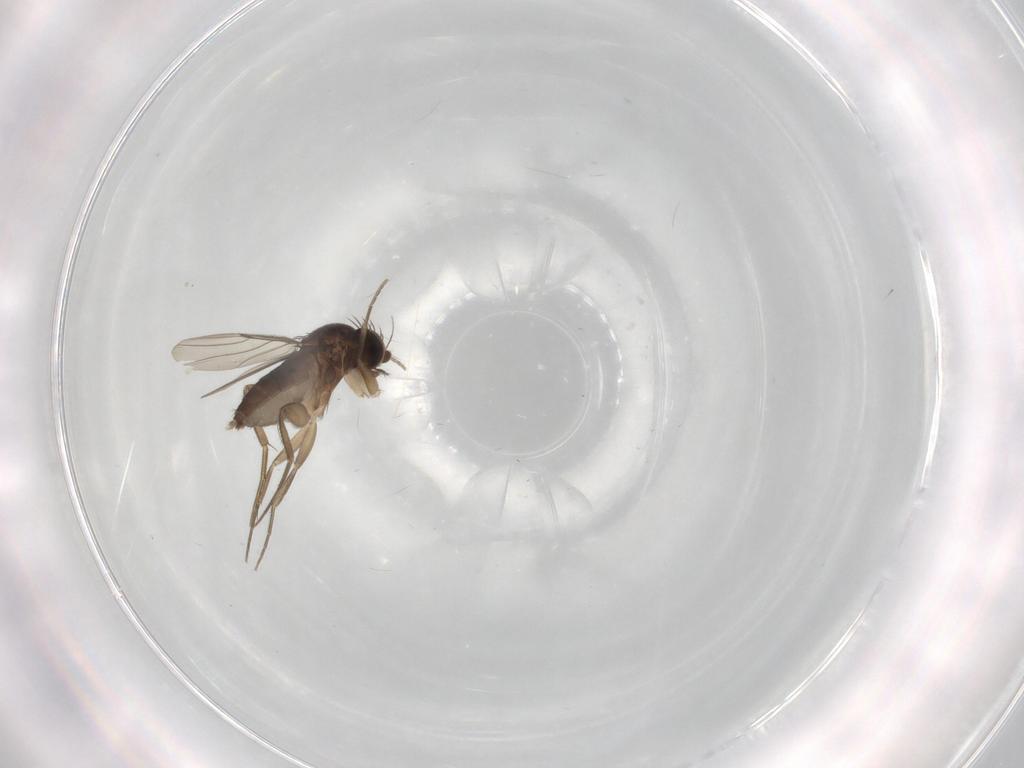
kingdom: Animalia
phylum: Arthropoda
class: Insecta
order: Diptera
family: Phoridae
